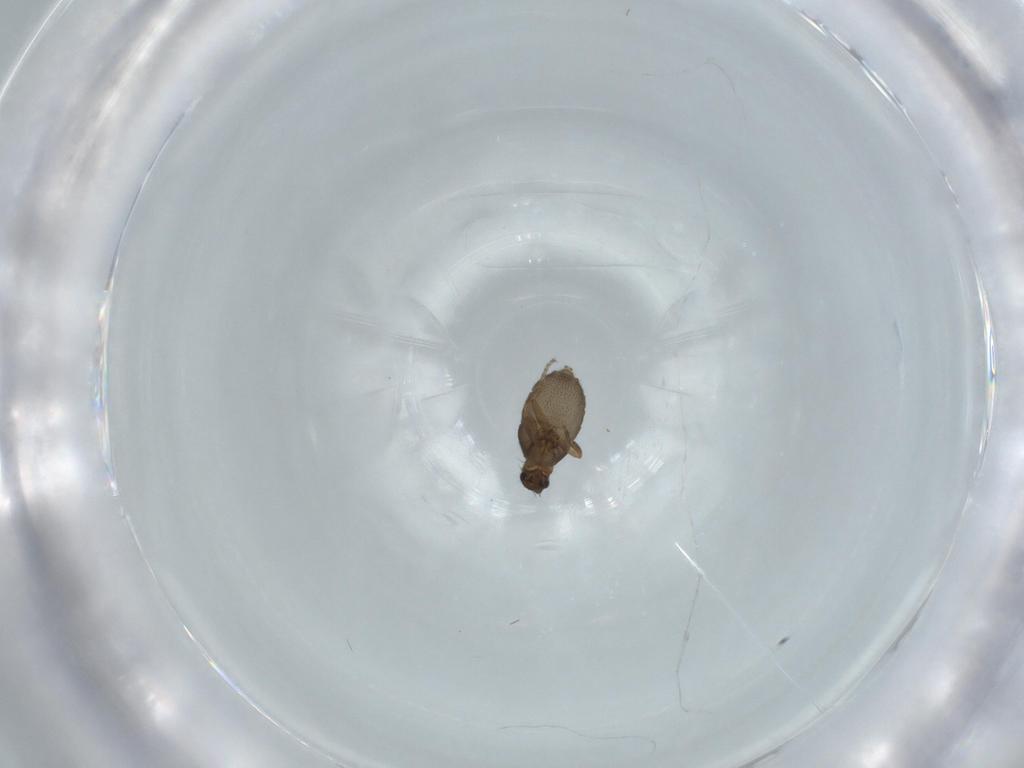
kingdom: Animalia
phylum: Arthropoda
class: Insecta
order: Diptera
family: Phoridae
